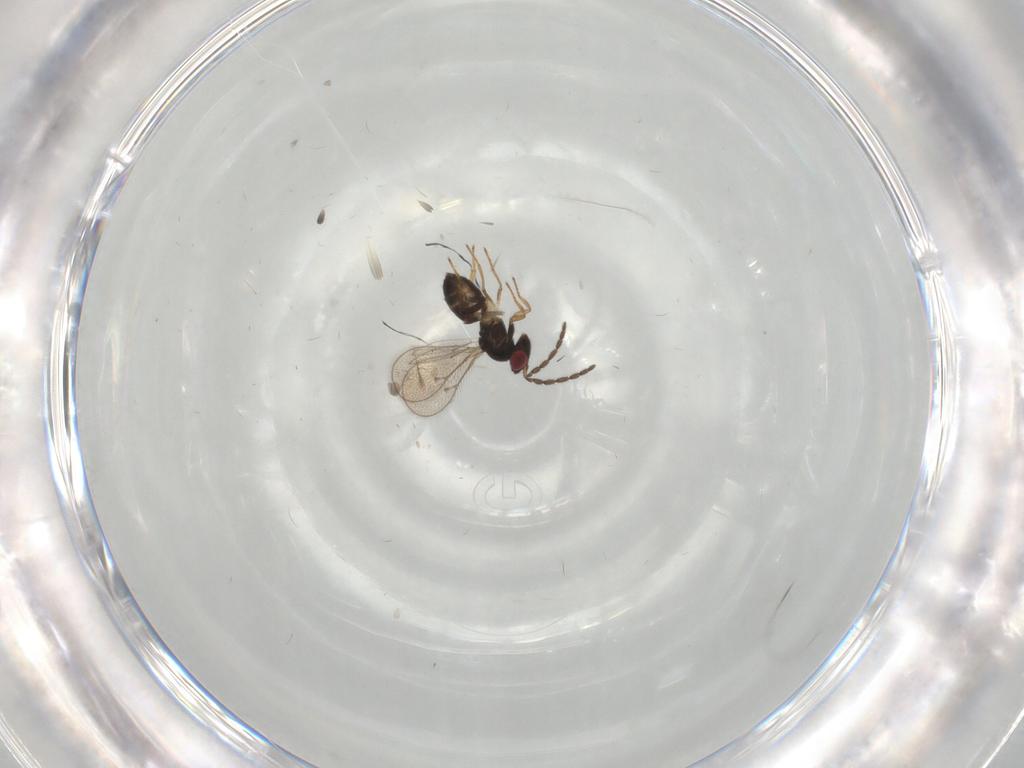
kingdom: Animalia
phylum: Arthropoda
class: Insecta
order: Hymenoptera
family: Eulophidae
